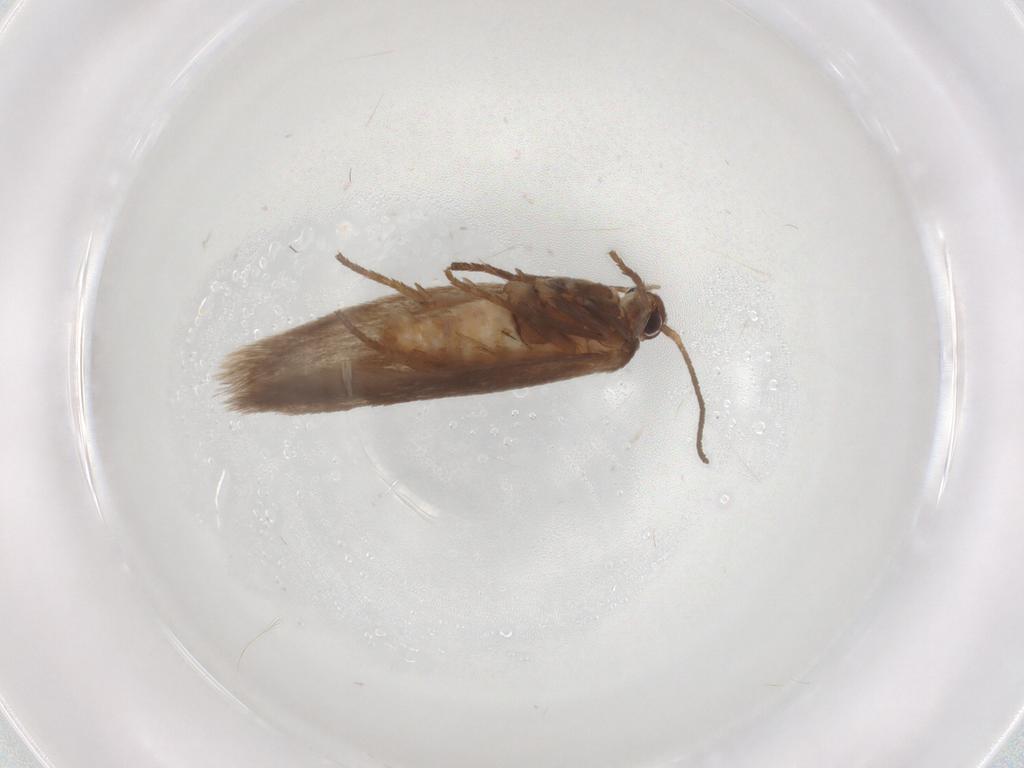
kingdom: Animalia
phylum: Arthropoda
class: Insecta
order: Lepidoptera
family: Limacodidae
